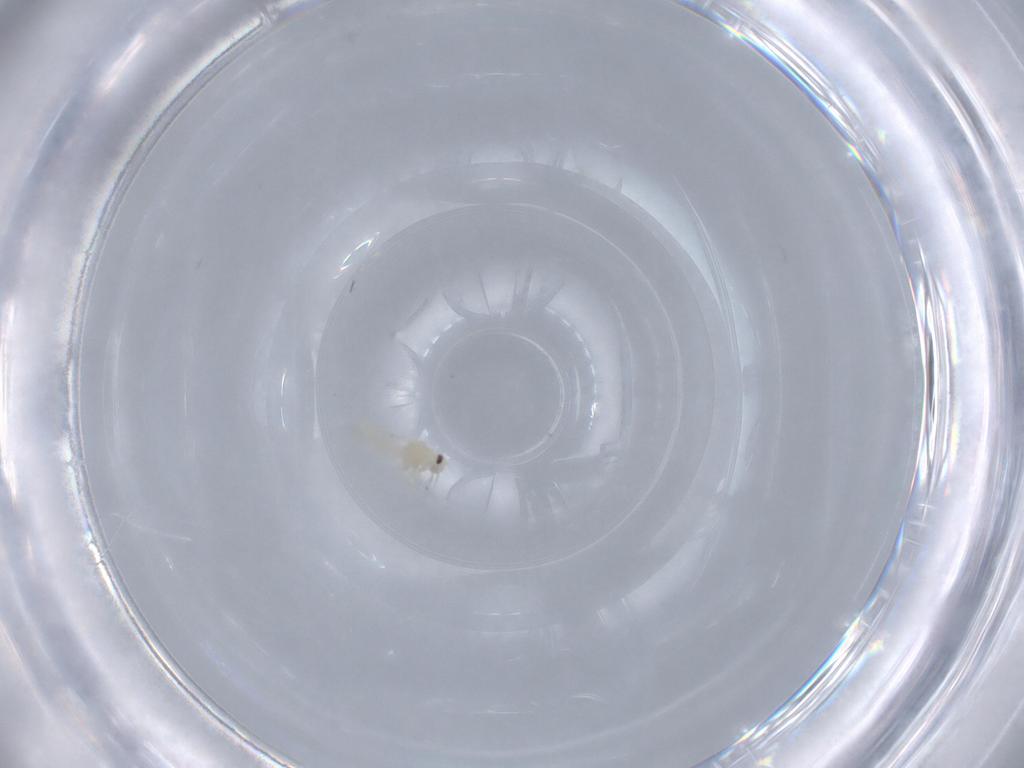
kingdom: Animalia
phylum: Arthropoda
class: Insecta
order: Hemiptera
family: Aleyrodidae
